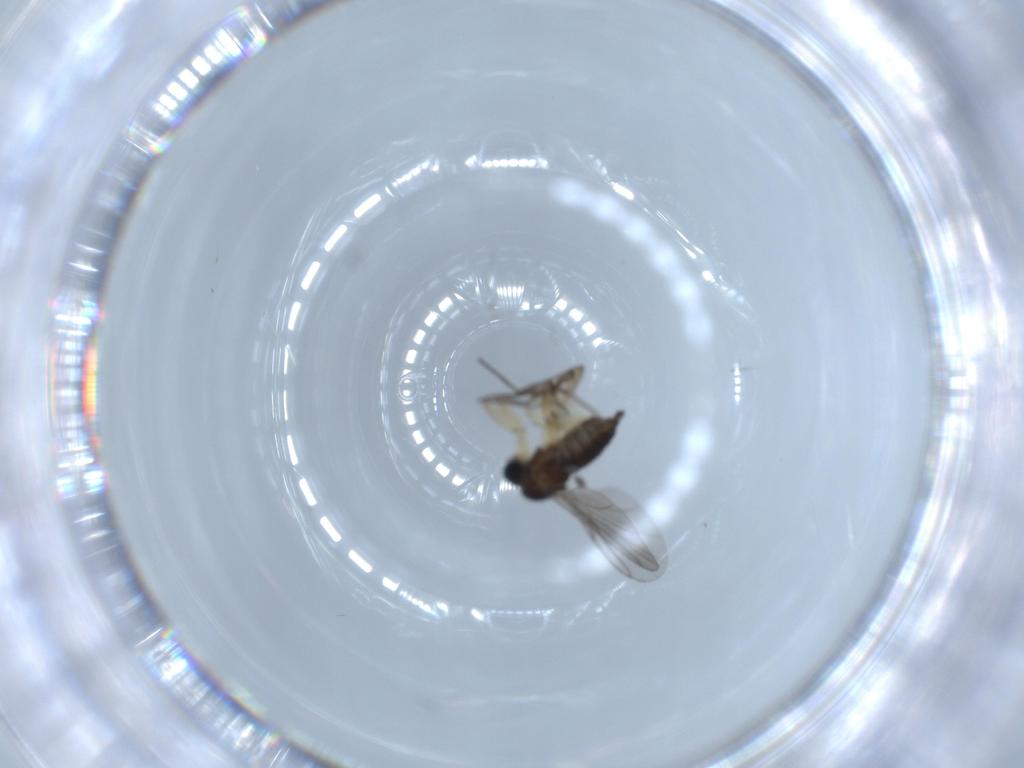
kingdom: Animalia
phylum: Arthropoda
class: Insecta
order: Diptera
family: Sciaridae
